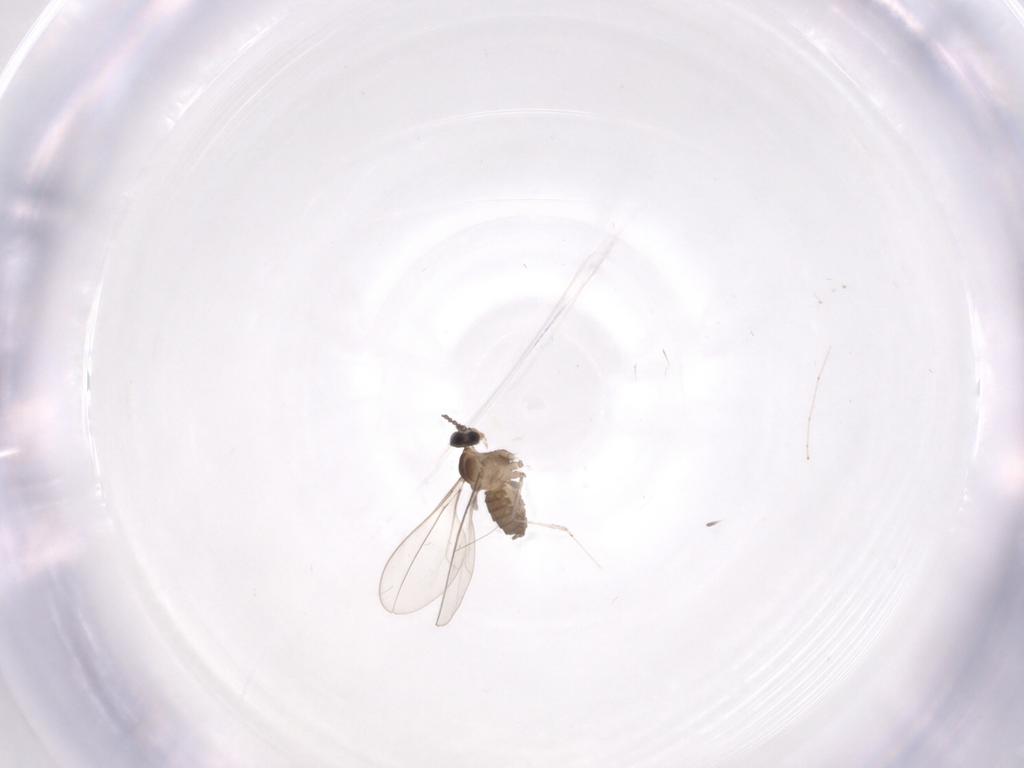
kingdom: Animalia
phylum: Arthropoda
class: Insecta
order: Diptera
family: Cecidomyiidae
